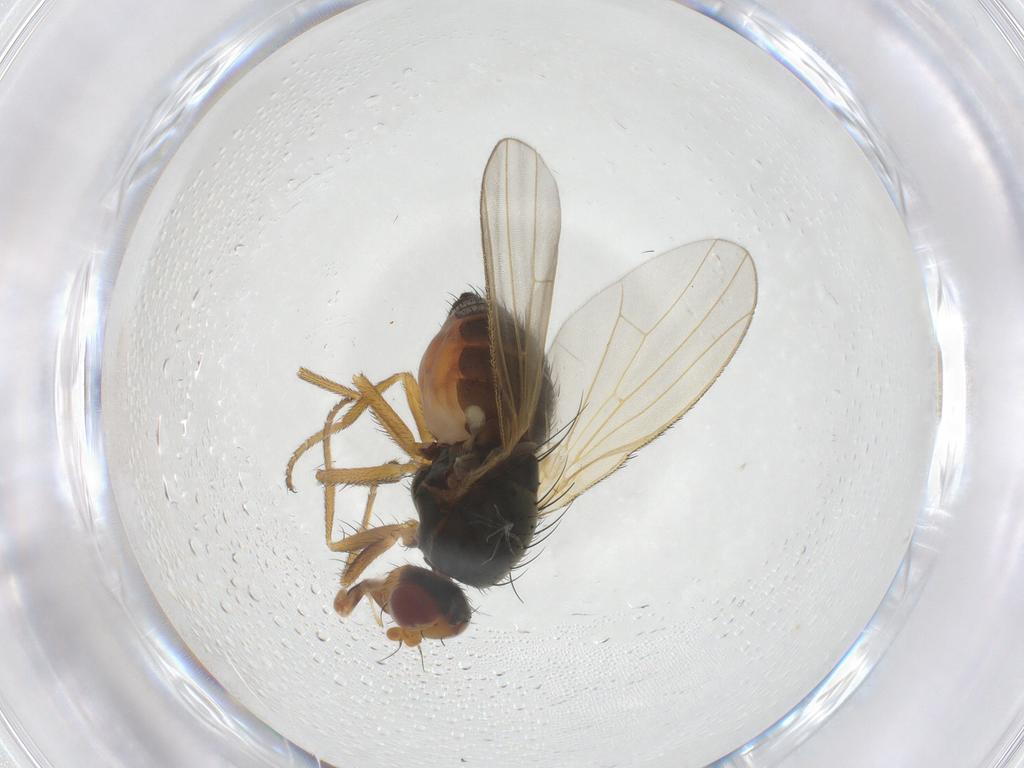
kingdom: Animalia
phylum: Arthropoda
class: Insecta
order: Diptera
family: Heleomyzidae
